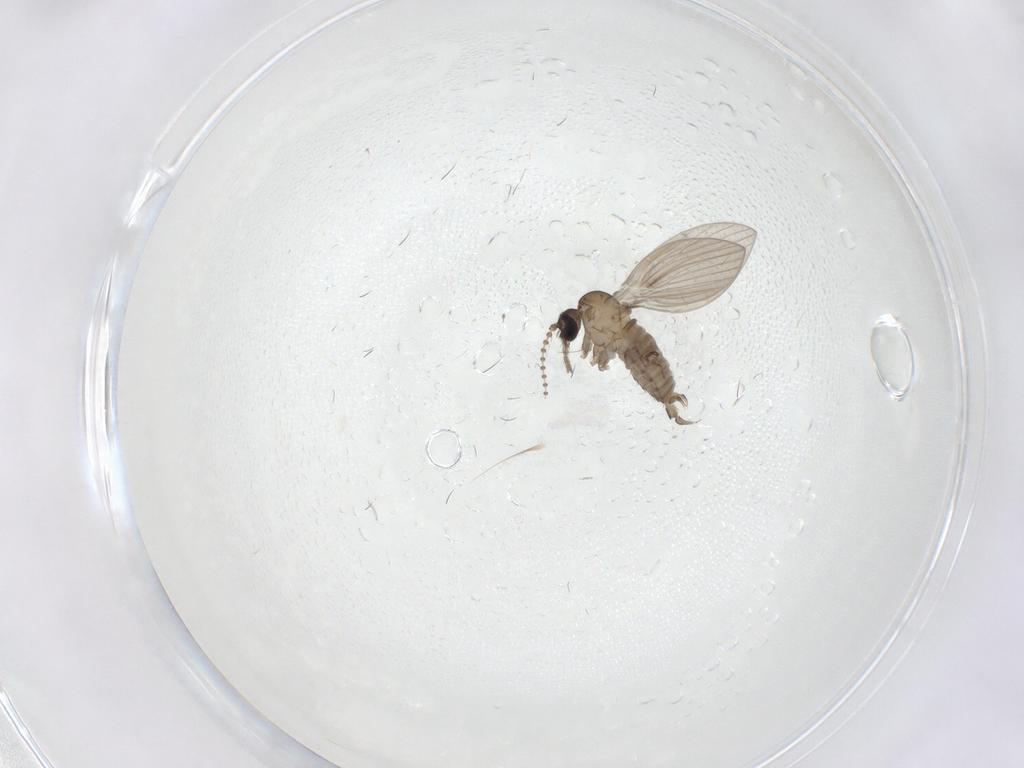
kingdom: Animalia
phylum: Arthropoda
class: Insecta
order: Diptera
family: Psychodidae
